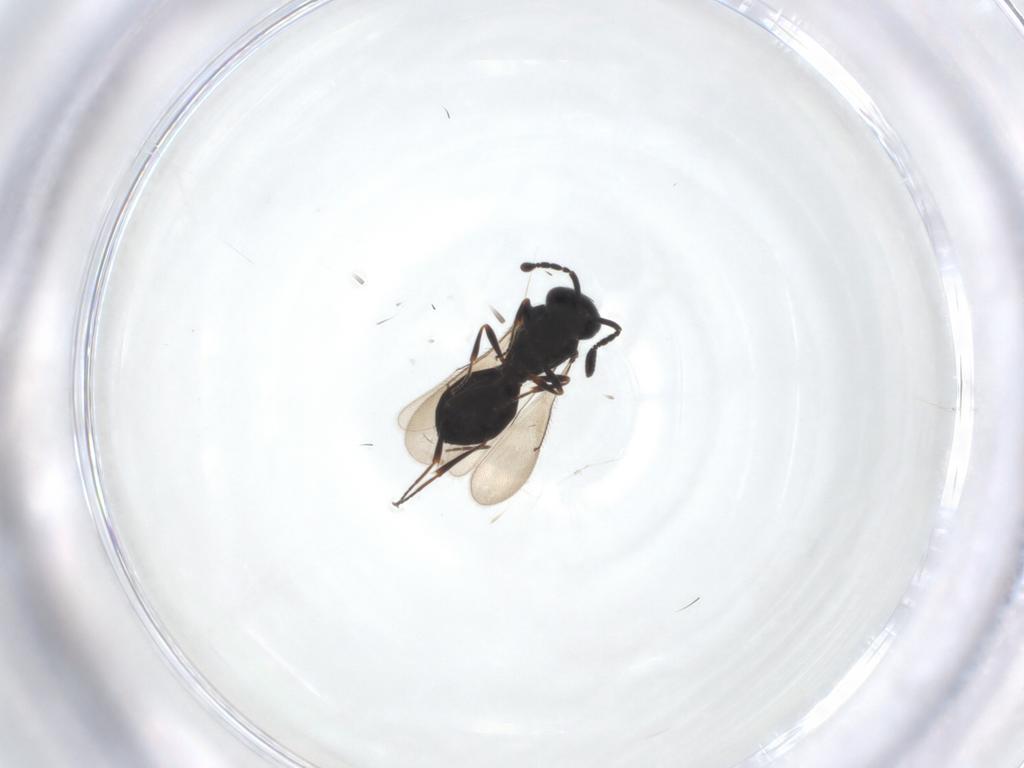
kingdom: Animalia
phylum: Arthropoda
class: Insecta
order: Hymenoptera
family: Scelionidae
